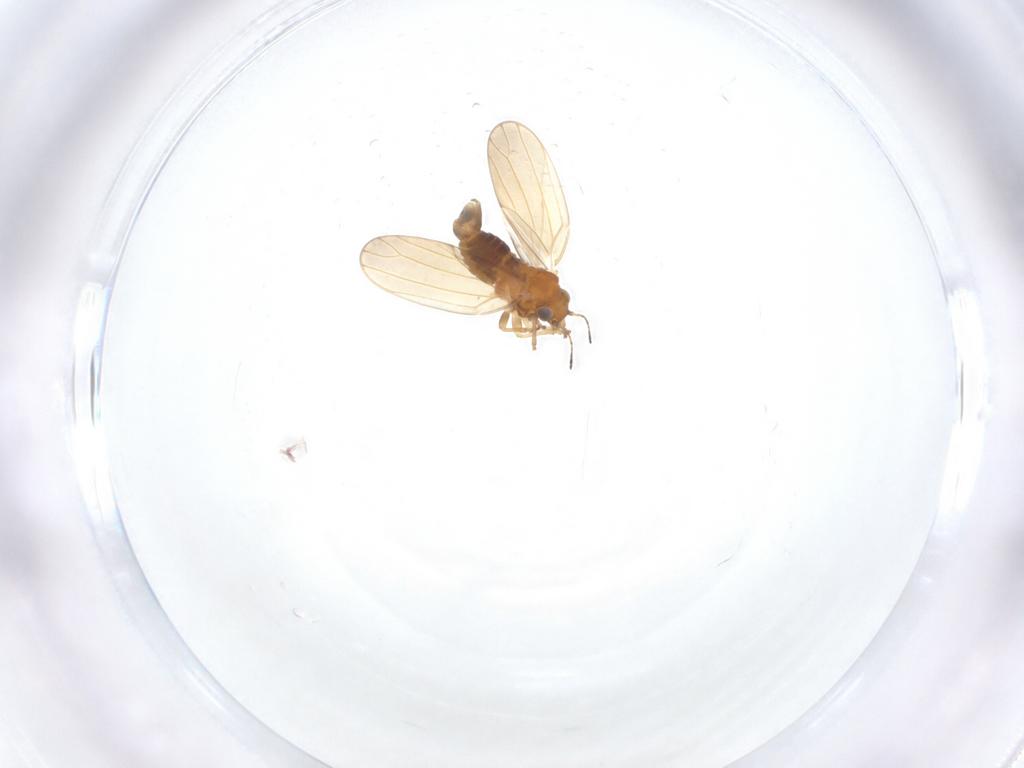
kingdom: Animalia
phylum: Arthropoda
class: Insecta
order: Hemiptera
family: Aphalaridae
